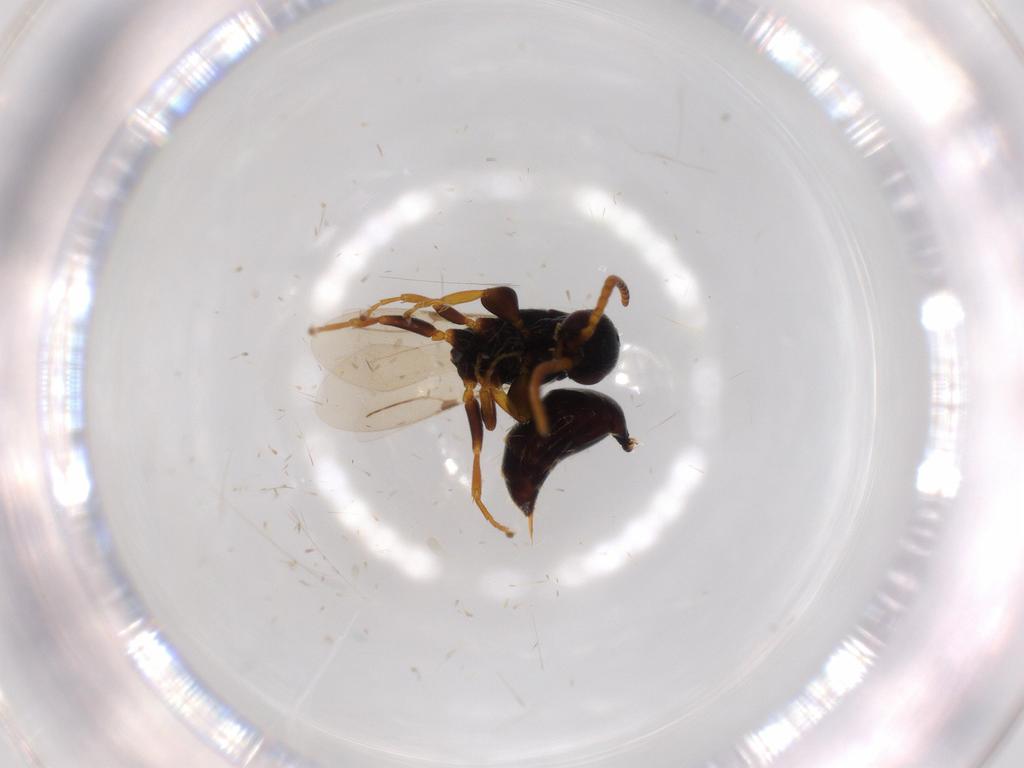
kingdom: Animalia
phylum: Arthropoda
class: Insecta
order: Hymenoptera
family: Bethylidae
